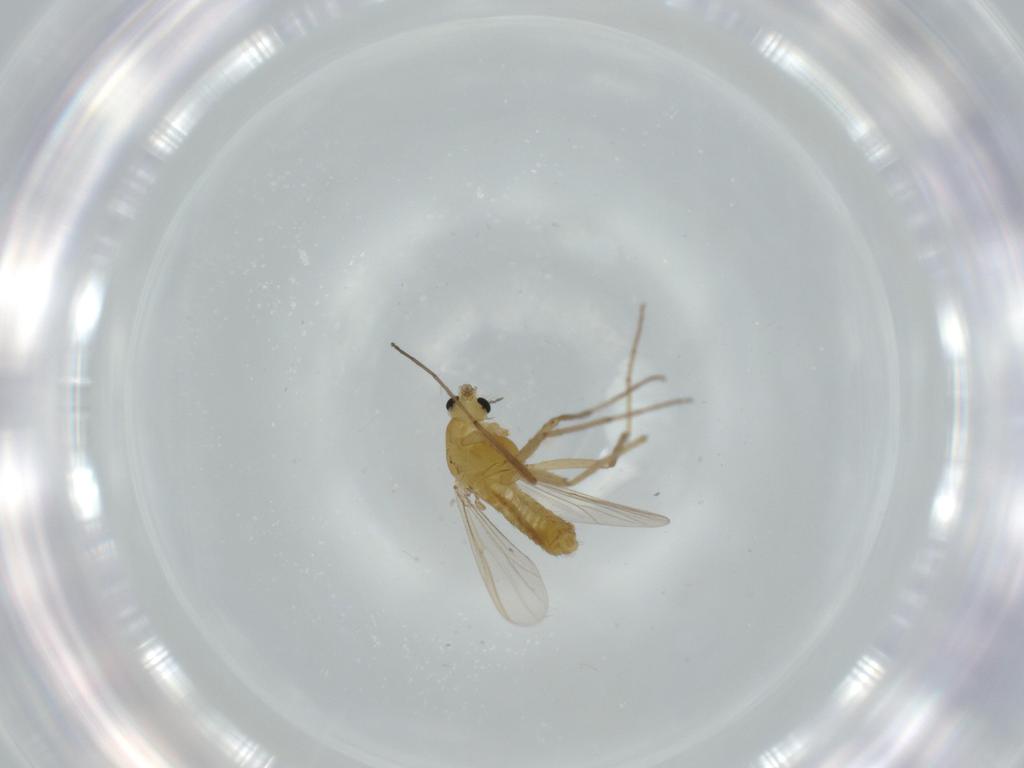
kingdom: Animalia
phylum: Arthropoda
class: Insecta
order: Diptera
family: Chironomidae
